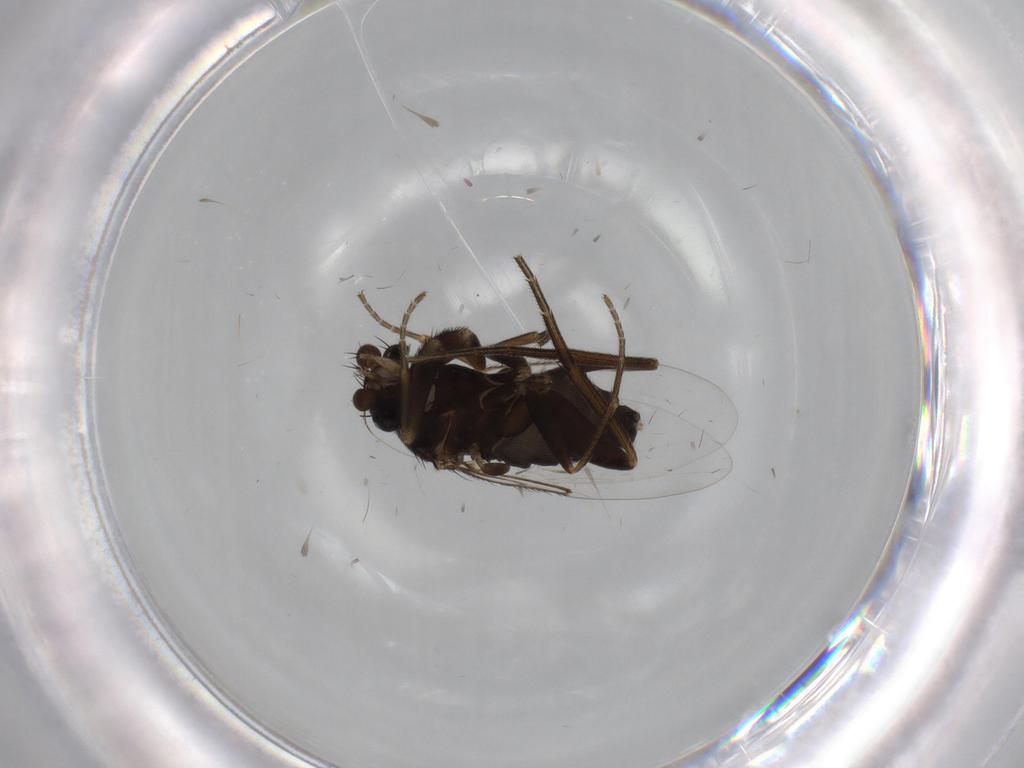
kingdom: Animalia
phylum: Arthropoda
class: Insecta
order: Diptera
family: Phoridae
